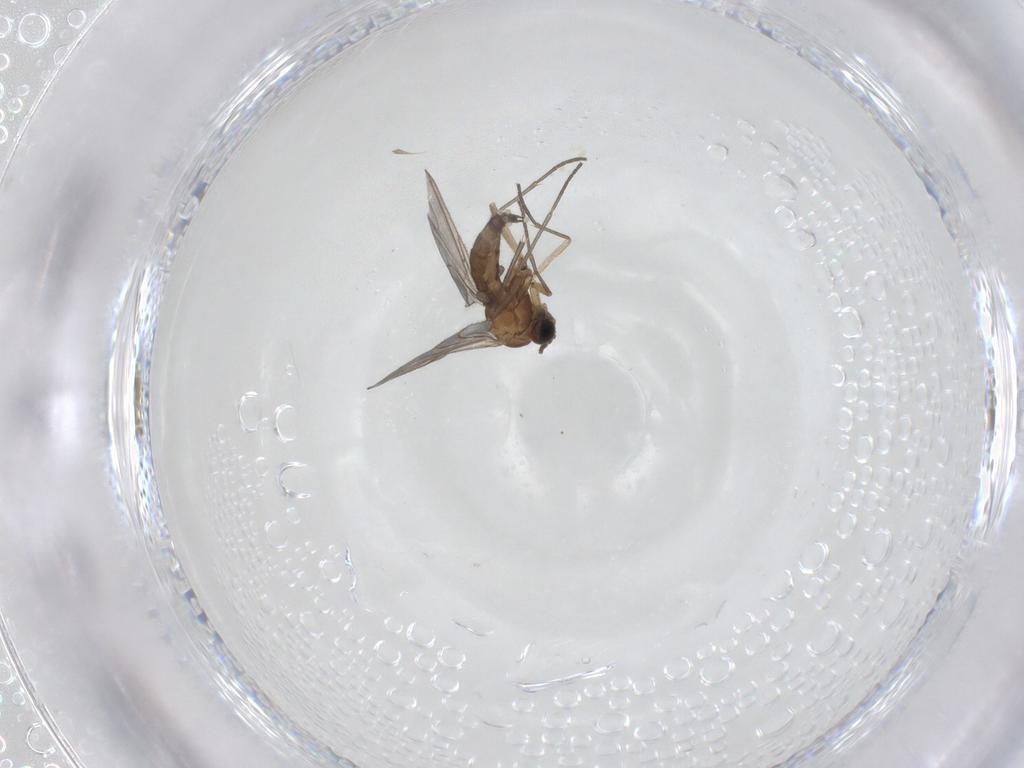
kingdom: Animalia
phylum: Arthropoda
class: Insecta
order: Diptera
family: Sciaridae
